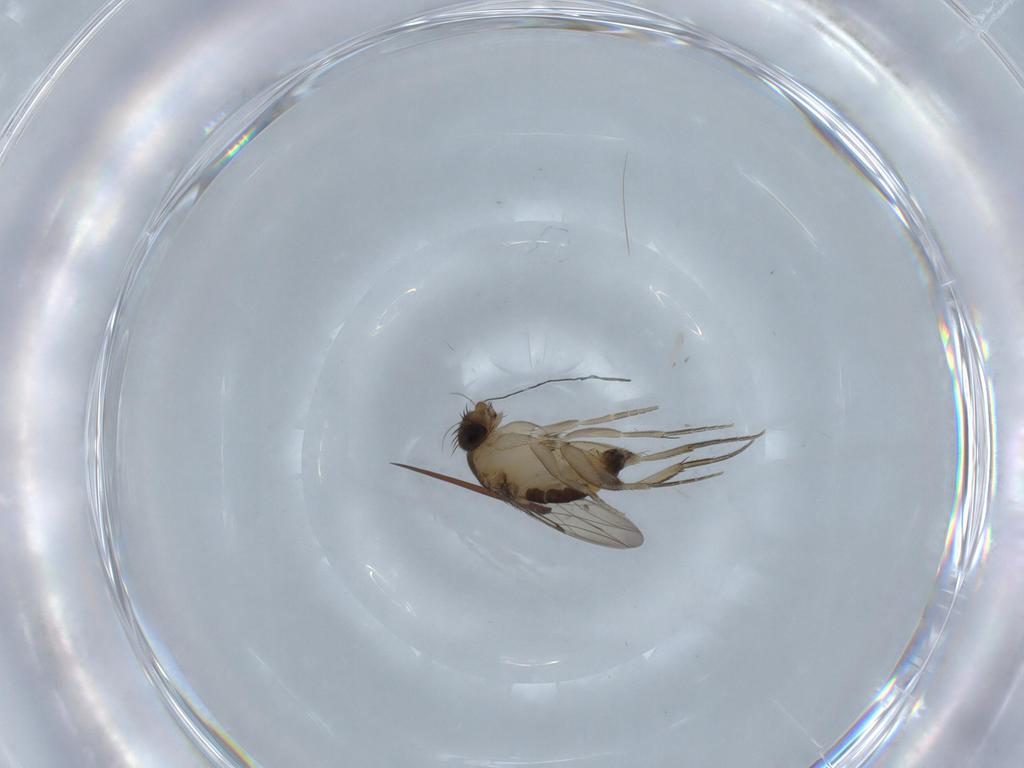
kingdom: Animalia
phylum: Arthropoda
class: Insecta
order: Diptera
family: Phoridae
